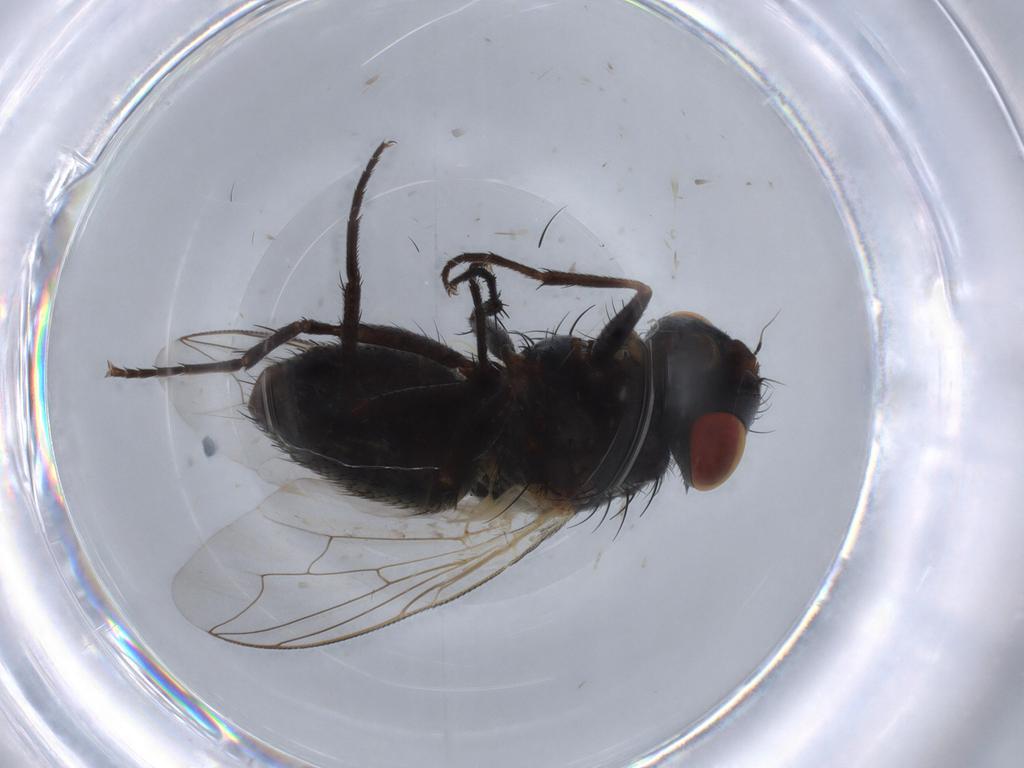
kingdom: Animalia
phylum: Arthropoda
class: Insecta
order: Diptera
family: Sarcophagidae
